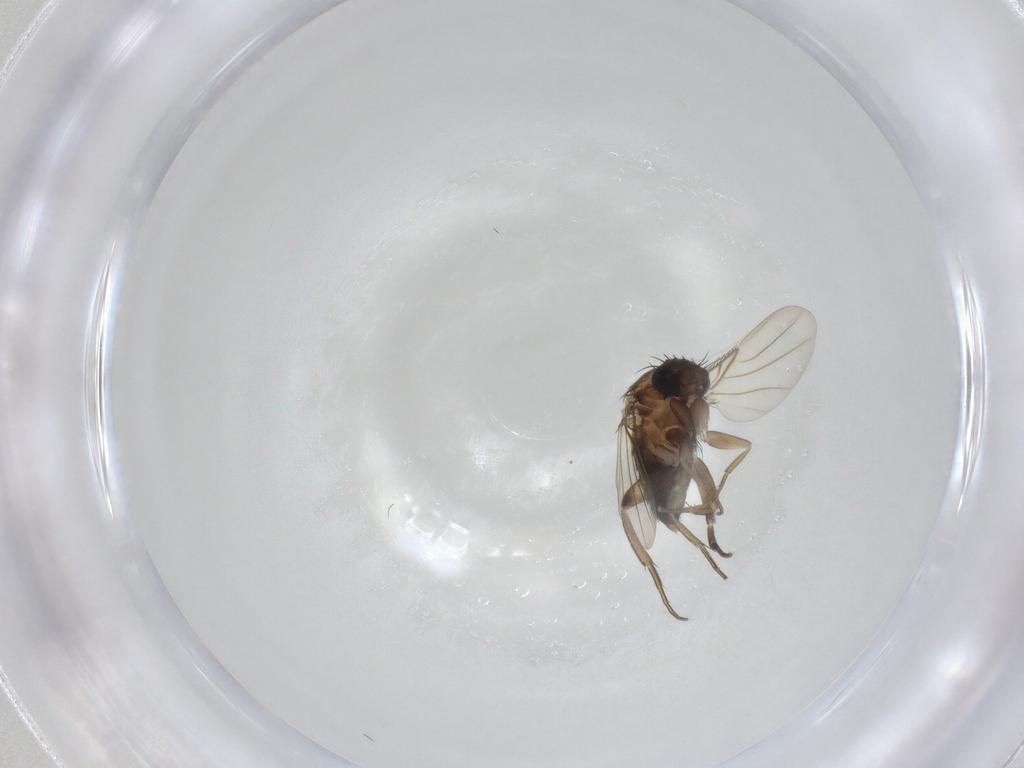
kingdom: Animalia
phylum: Arthropoda
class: Insecta
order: Diptera
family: Phoridae
